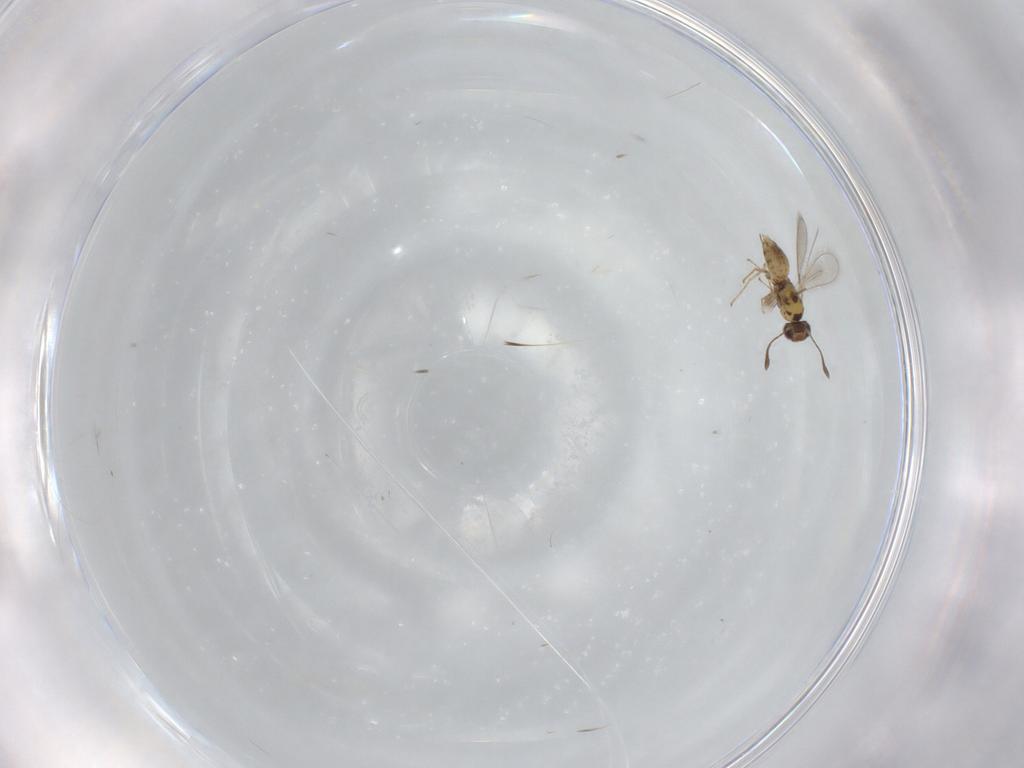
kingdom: Animalia
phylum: Arthropoda
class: Insecta
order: Hymenoptera
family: Mymaridae
